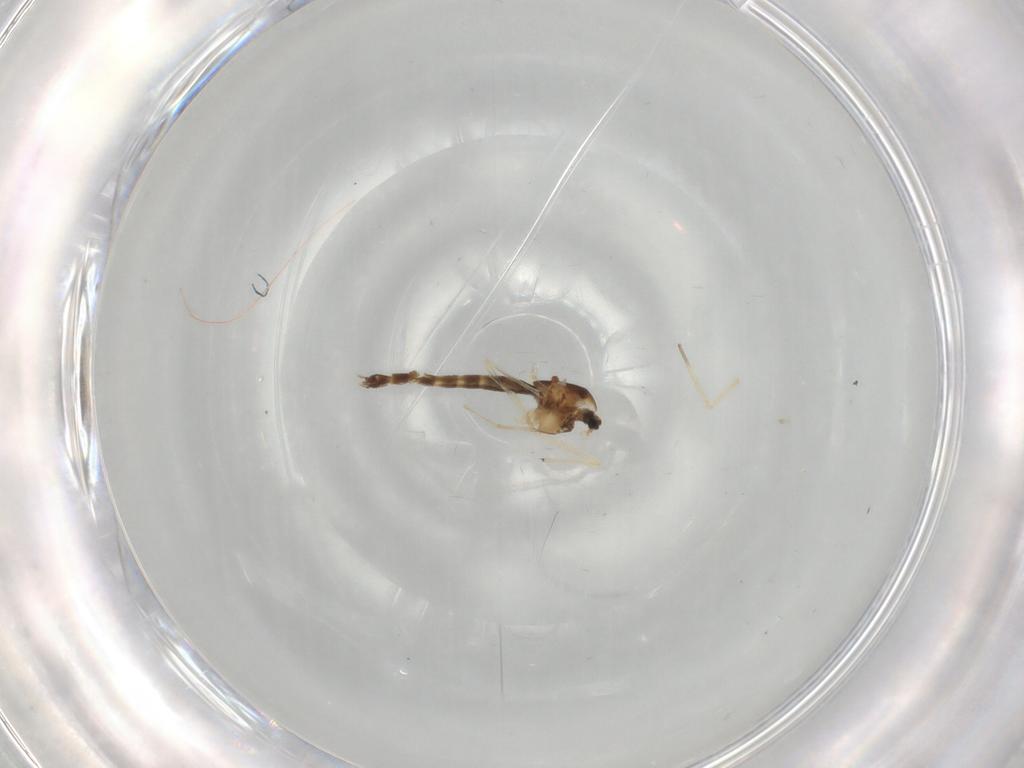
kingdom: Animalia
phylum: Arthropoda
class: Insecta
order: Diptera
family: Chironomidae
